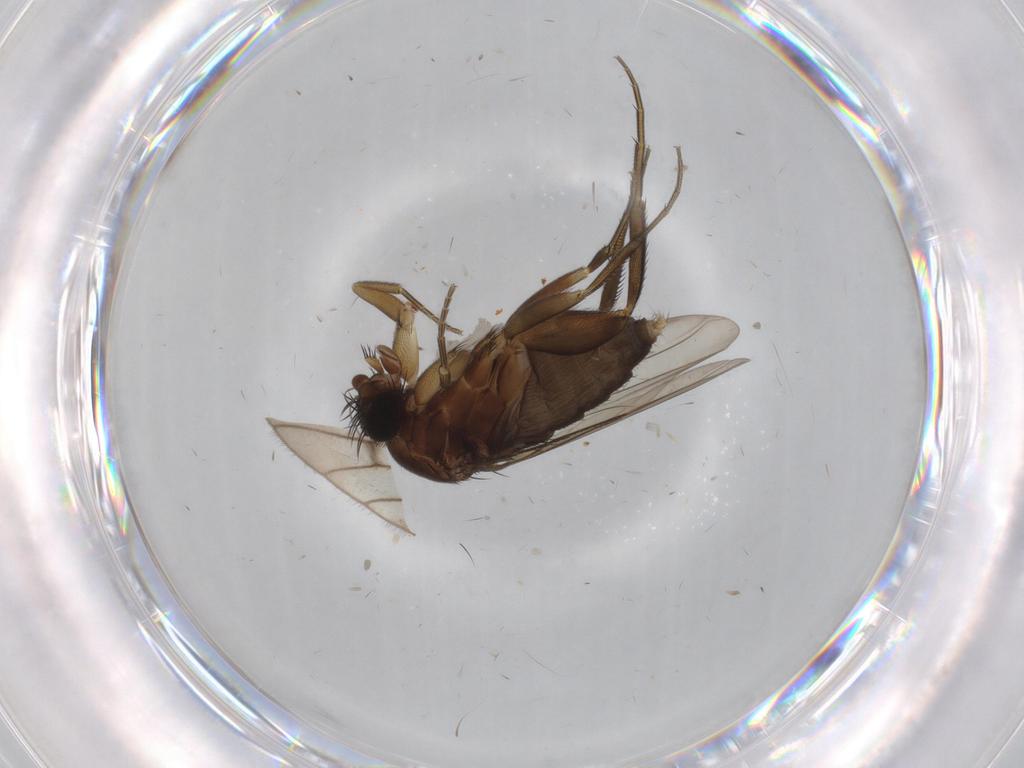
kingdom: Animalia
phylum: Arthropoda
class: Insecta
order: Diptera
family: Phoridae
